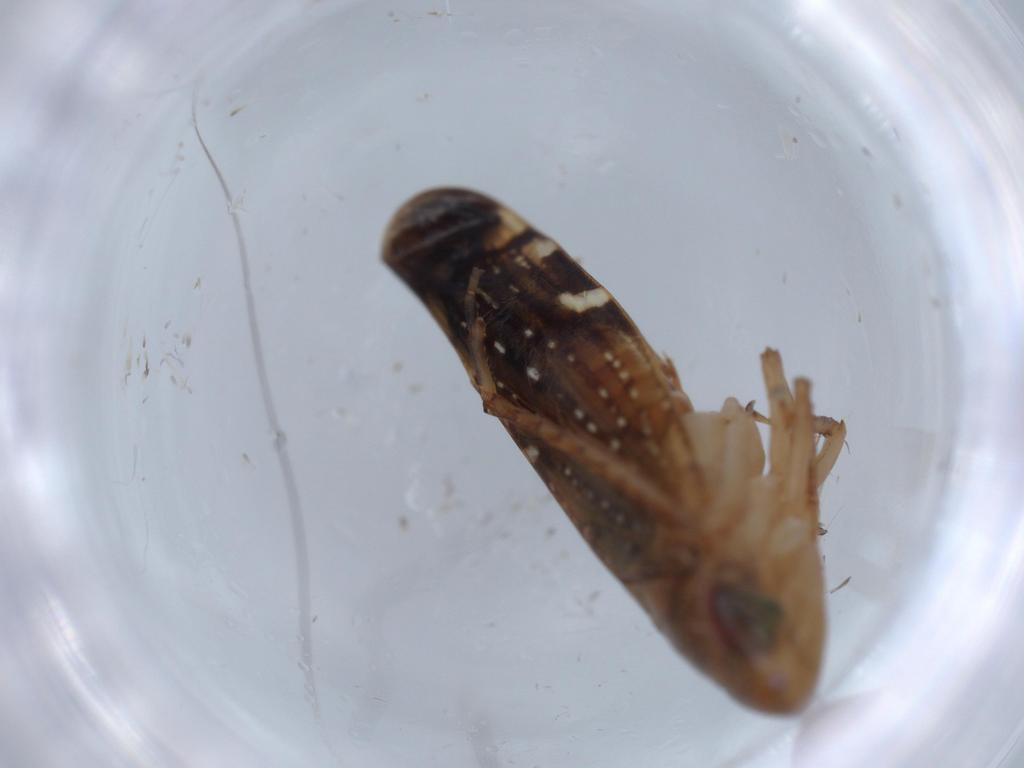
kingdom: Animalia
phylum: Arthropoda
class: Insecta
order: Hemiptera
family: Cicadellidae
